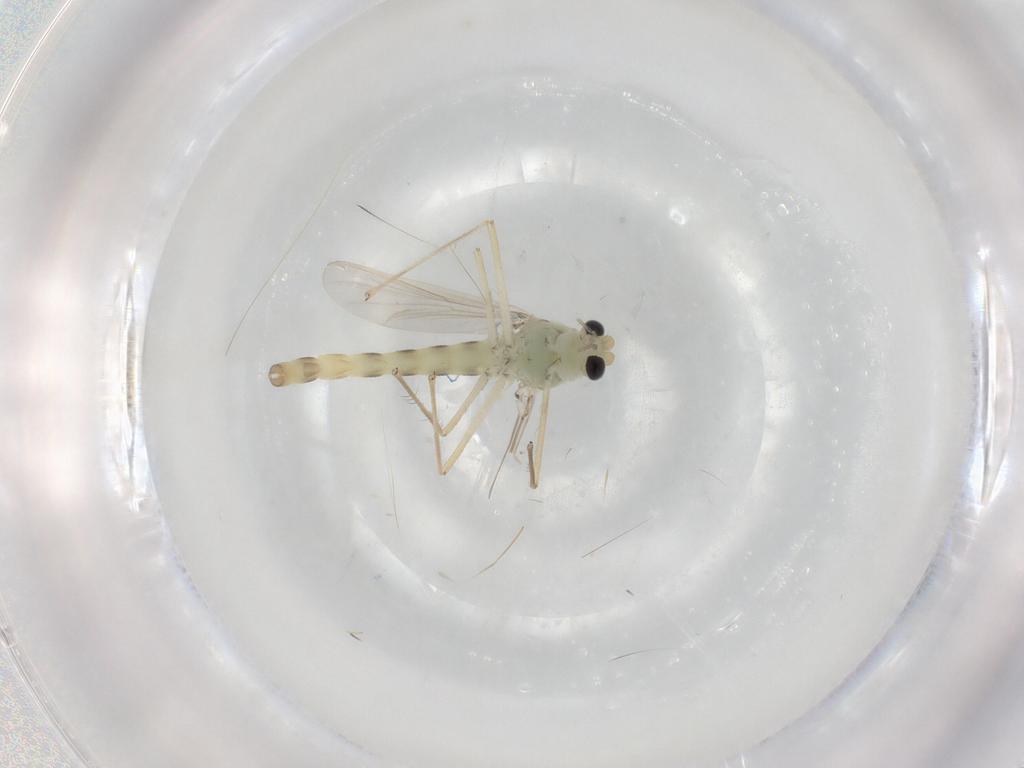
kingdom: Animalia
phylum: Arthropoda
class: Insecta
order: Diptera
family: Chironomidae
